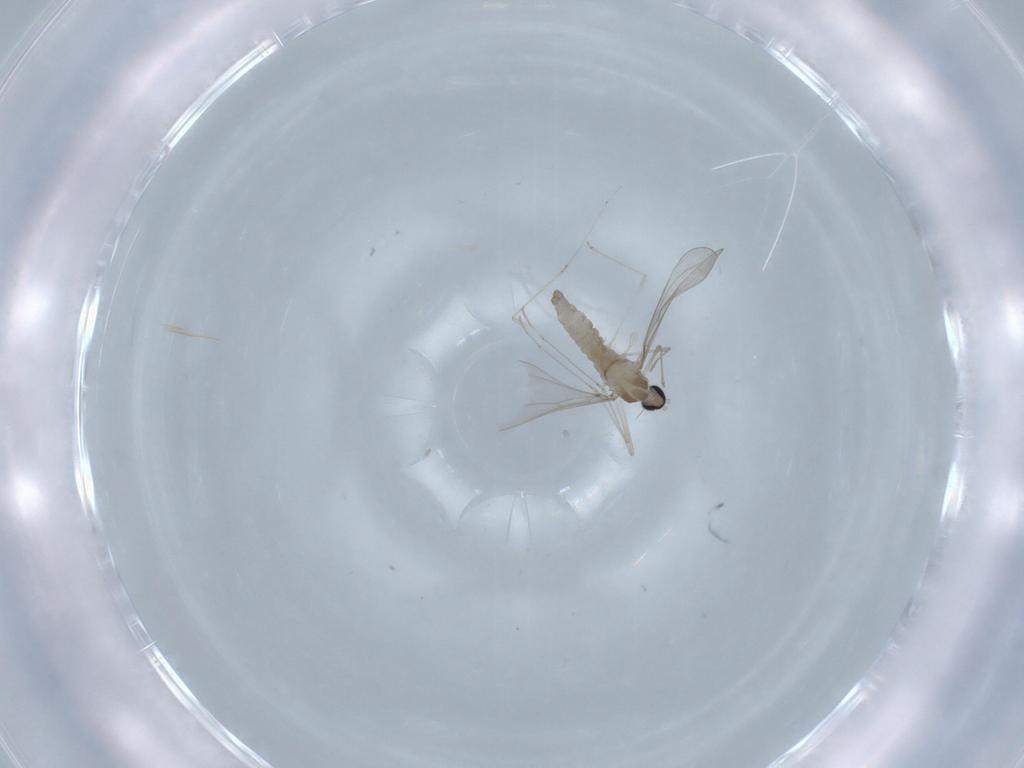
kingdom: Animalia
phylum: Arthropoda
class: Insecta
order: Diptera
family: Cecidomyiidae
